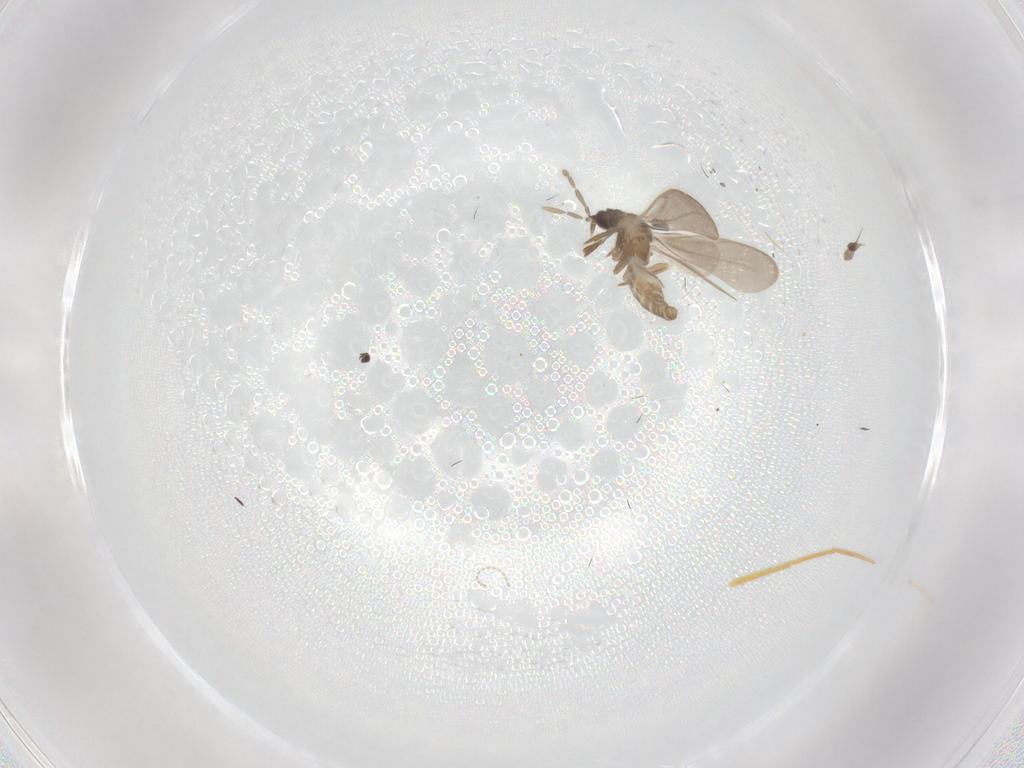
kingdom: Animalia
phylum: Arthropoda
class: Insecta
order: Hemiptera
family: Enicocephalidae
